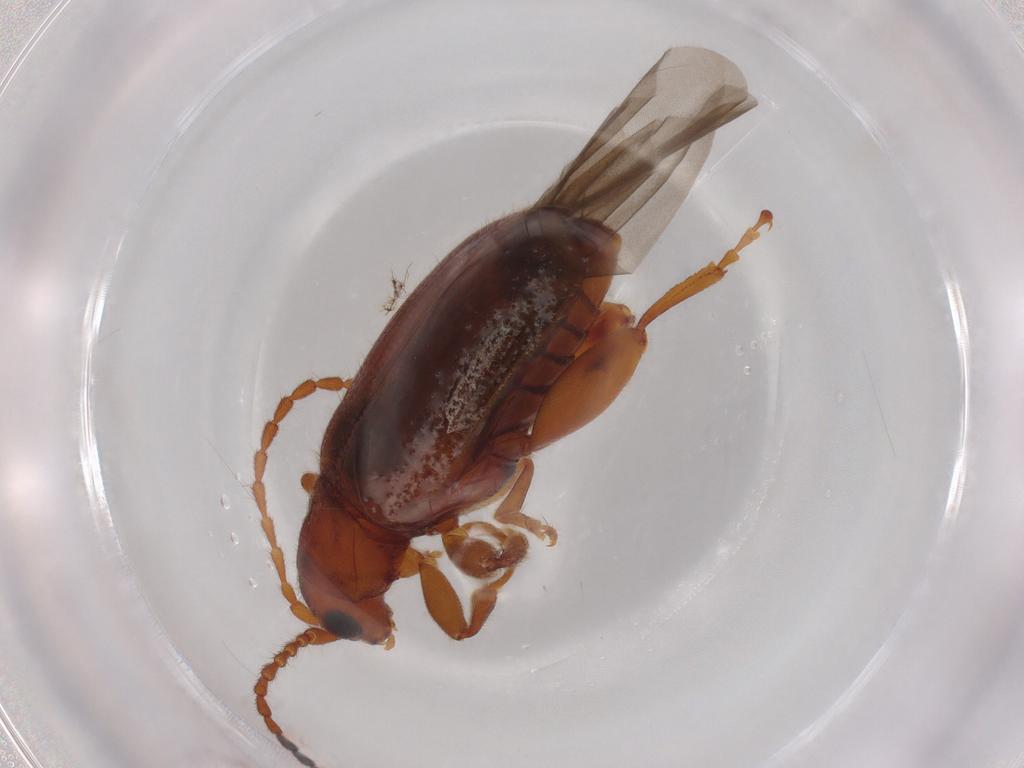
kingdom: Animalia
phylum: Arthropoda
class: Insecta
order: Coleoptera
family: Chrysomelidae
